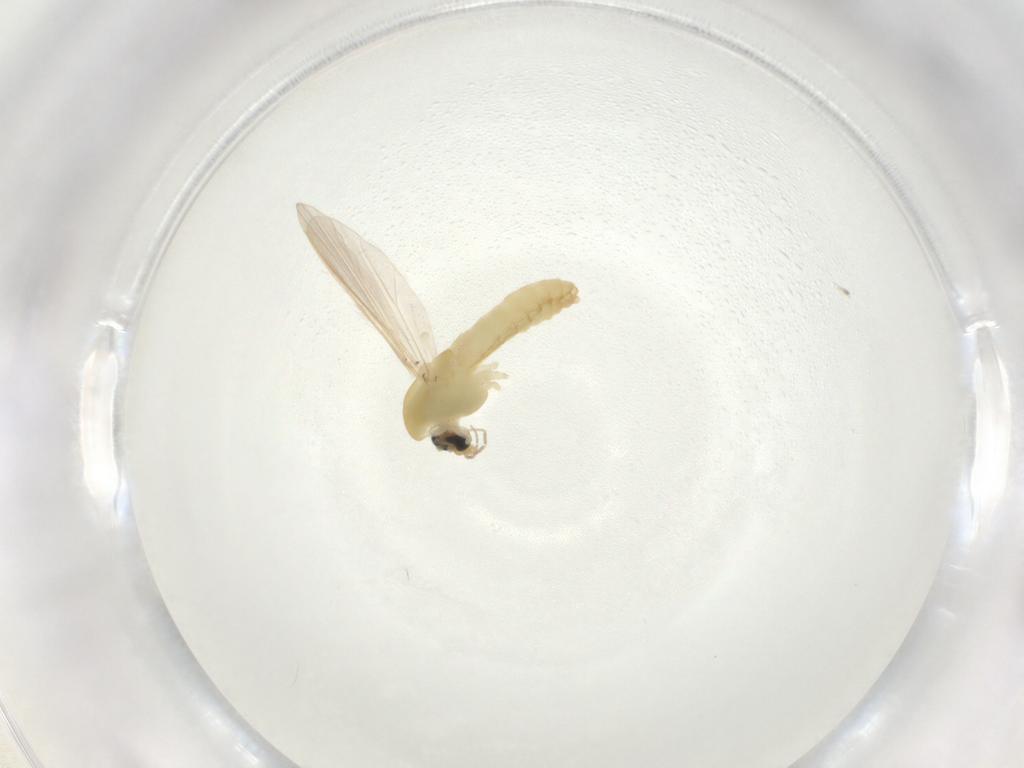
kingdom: Animalia
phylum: Arthropoda
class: Insecta
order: Diptera
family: Chironomidae
